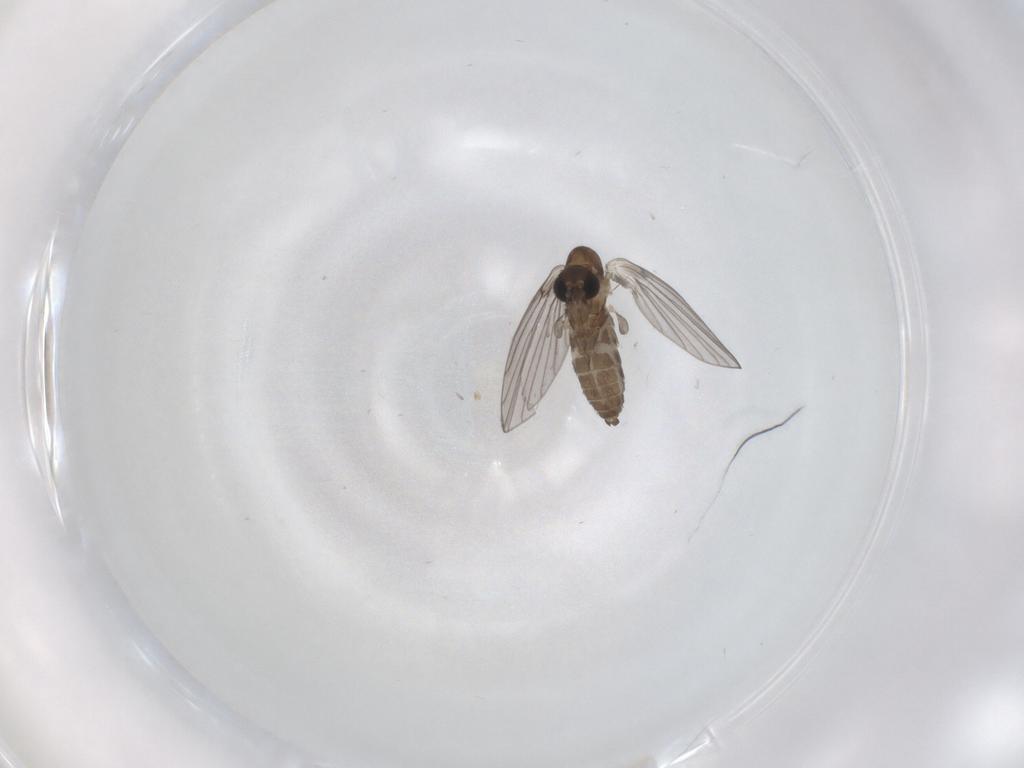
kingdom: Animalia
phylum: Arthropoda
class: Insecta
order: Diptera
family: Psychodidae
